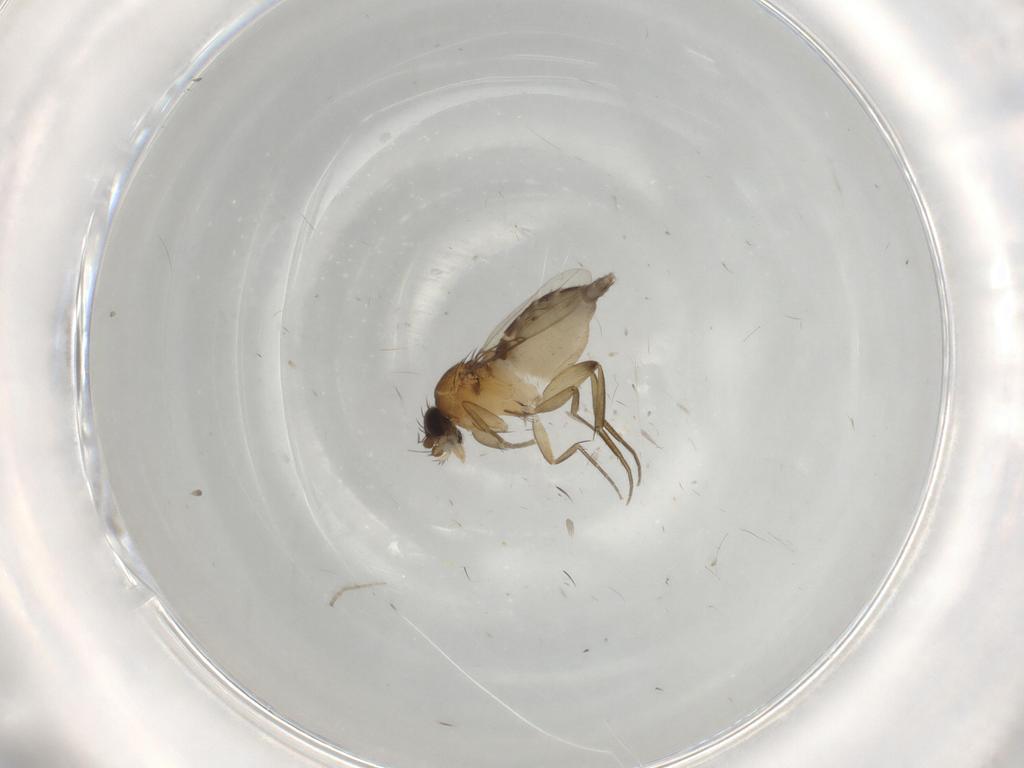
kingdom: Animalia
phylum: Arthropoda
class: Insecta
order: Diptera
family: Phoridae
